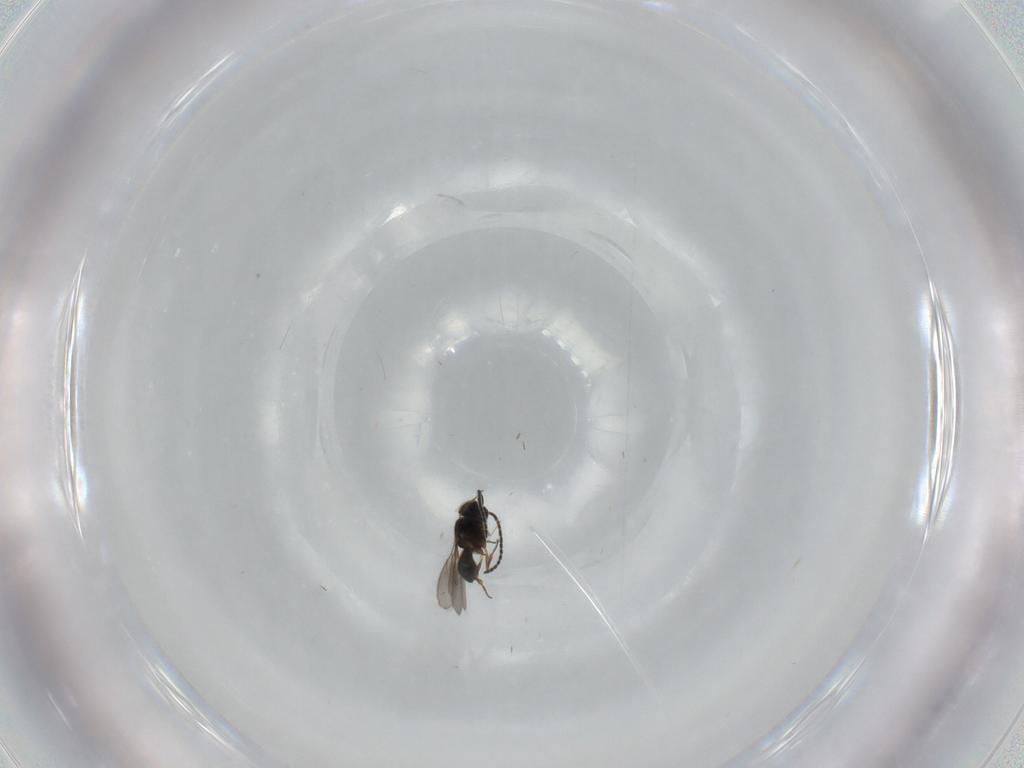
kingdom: Animalia
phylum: Arthropoda
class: Insecta
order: Hymenoptera
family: Scelionidae
